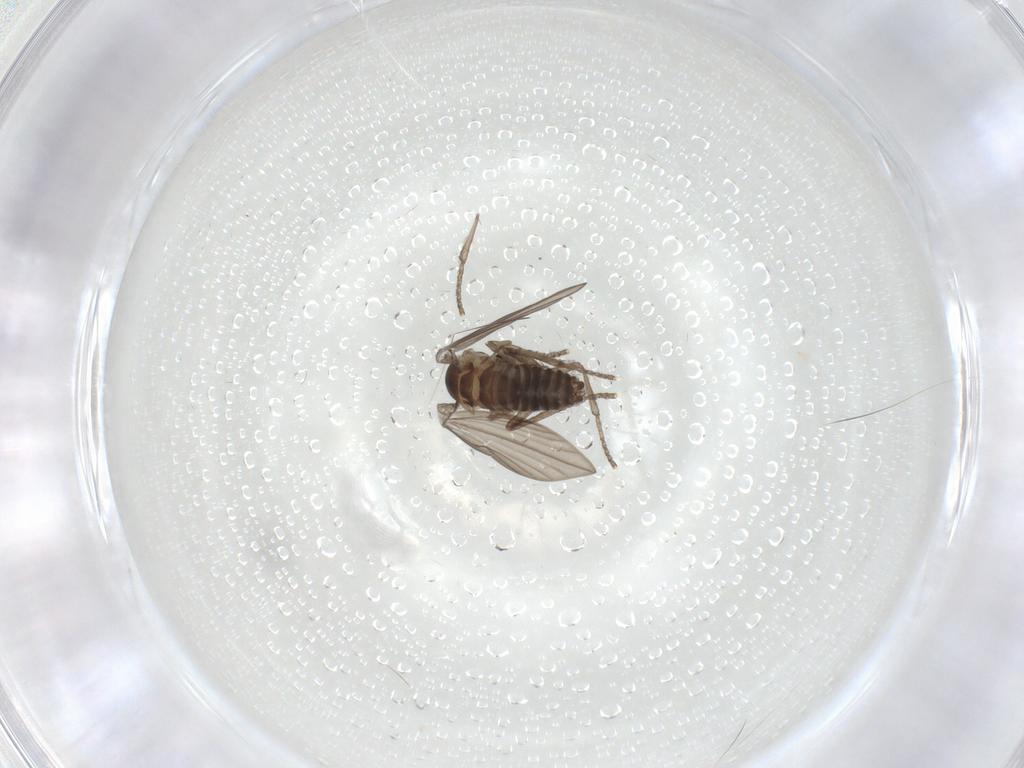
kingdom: Animalia
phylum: Arthropoda
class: Insecta
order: Diptera
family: Psychodidae
